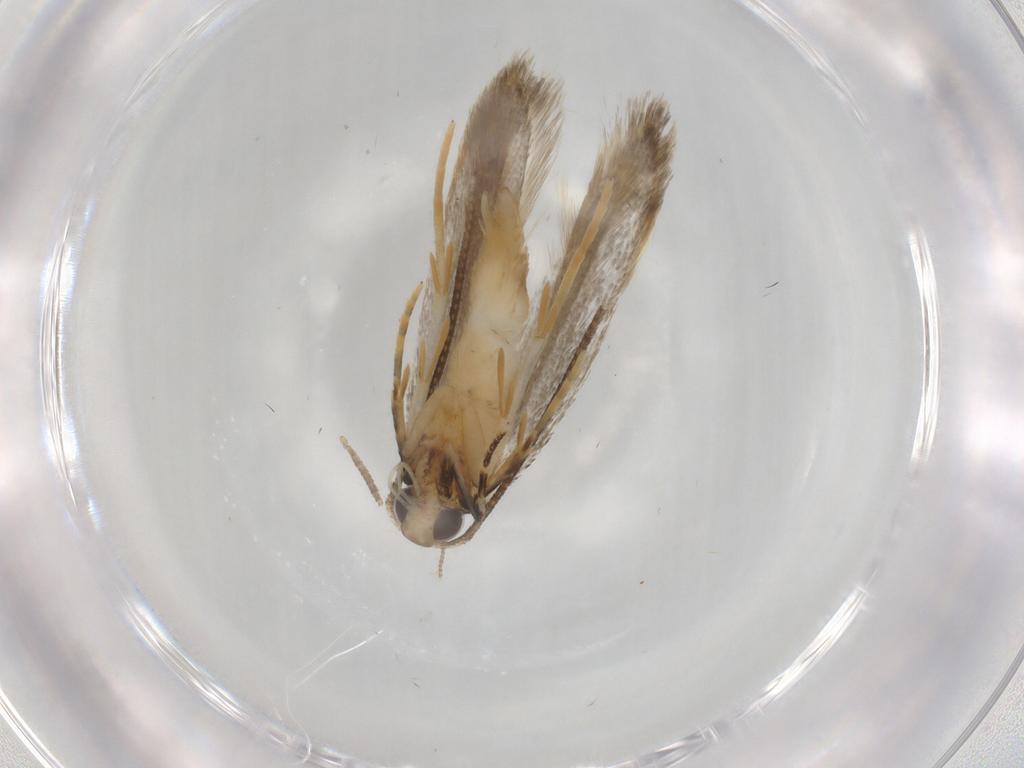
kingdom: Animalia
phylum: Arthropoda
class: Insecta
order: Lepidoptera
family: Autostichidae
